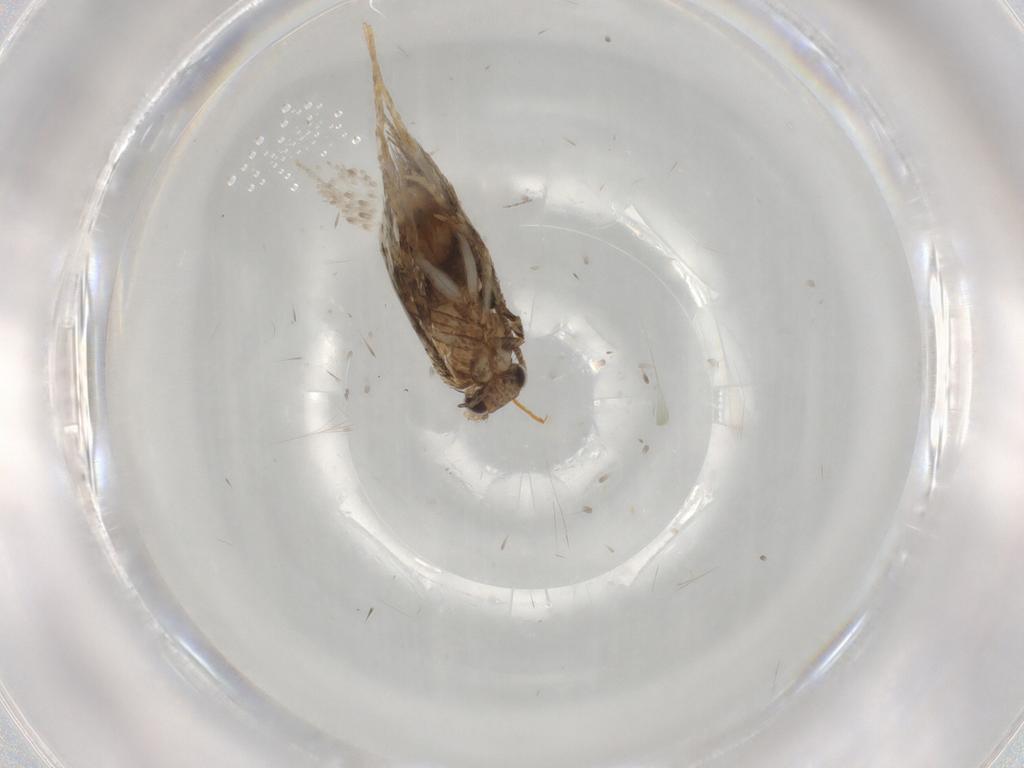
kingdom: Animalia
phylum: Arthropoda
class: Insecta
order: Lepidoptera
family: Tineidae
